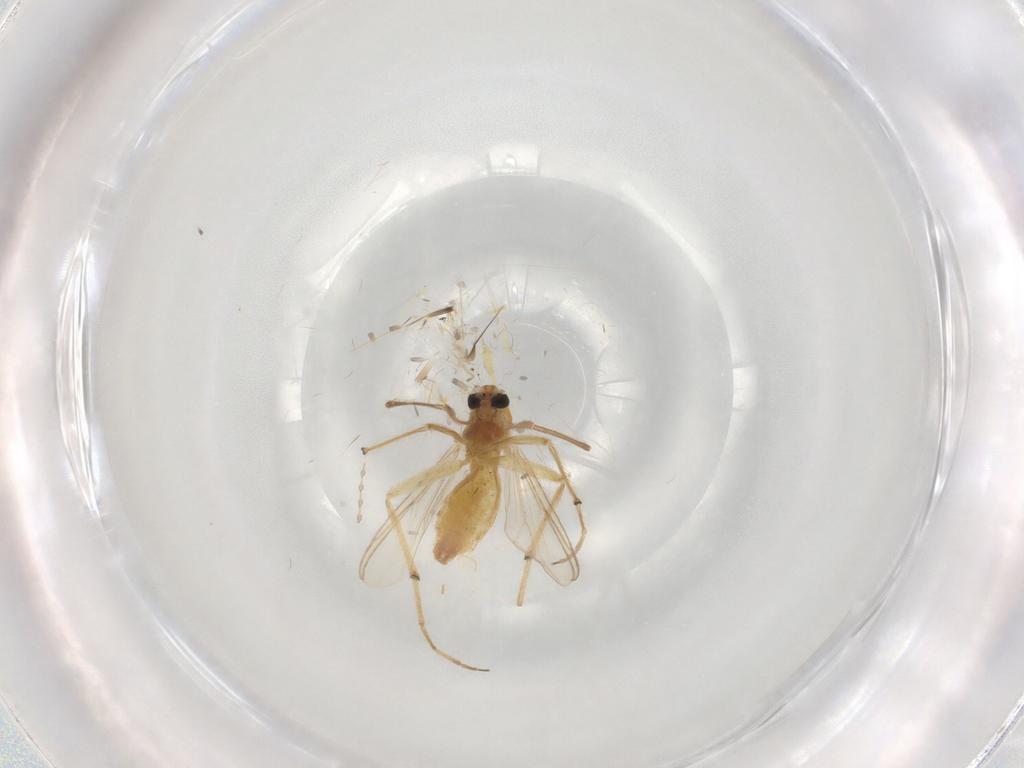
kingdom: Animalia
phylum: Arthropoda
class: Insecta
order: Diptera
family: Chironomidae
